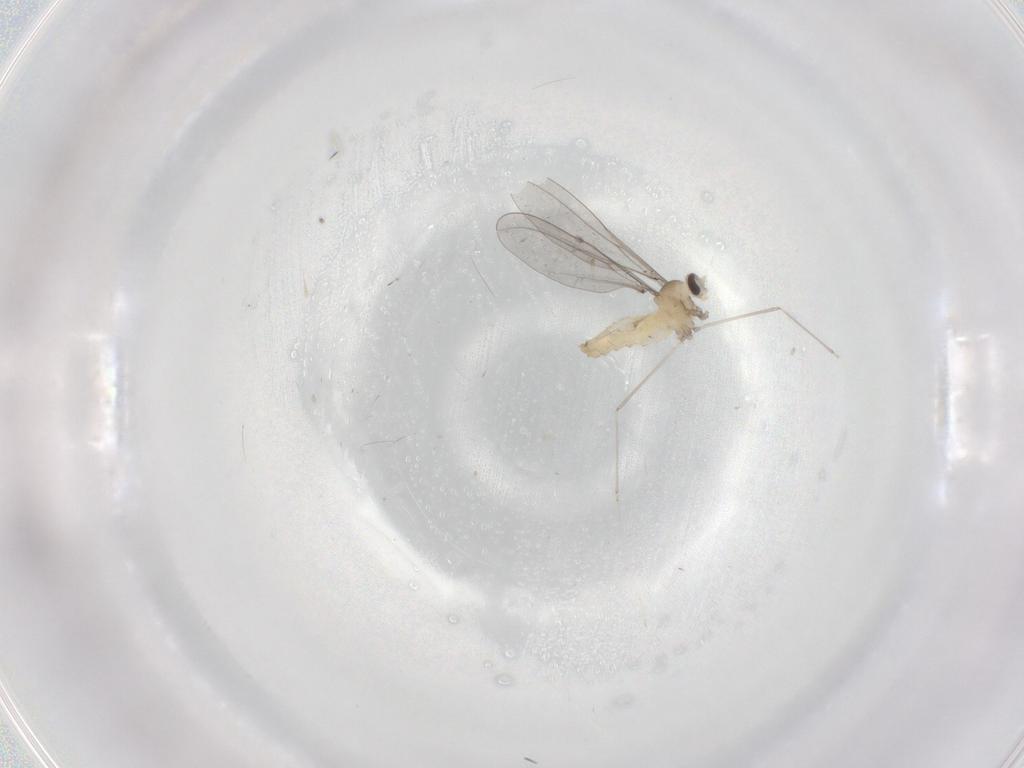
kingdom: Animalia
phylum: Arthropoda
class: Insecta
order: Diptera
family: Cecidomyiidae
